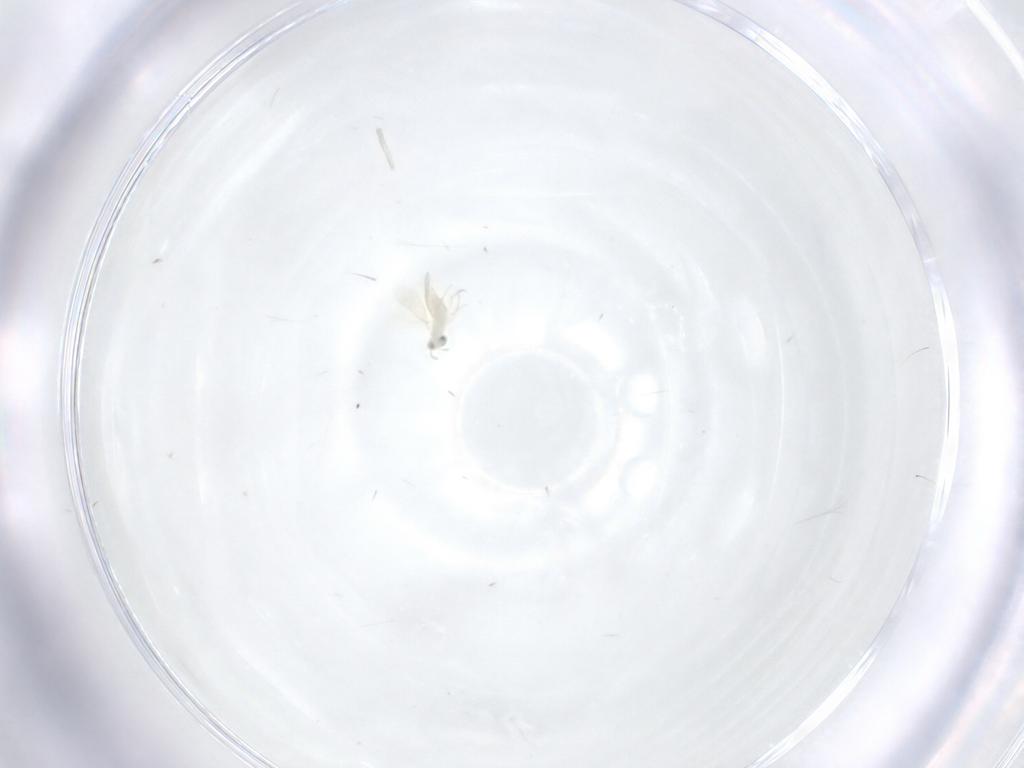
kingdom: Animalia
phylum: Arthropoda
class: Insecta
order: Hymenoptera
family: Aphelinidae
